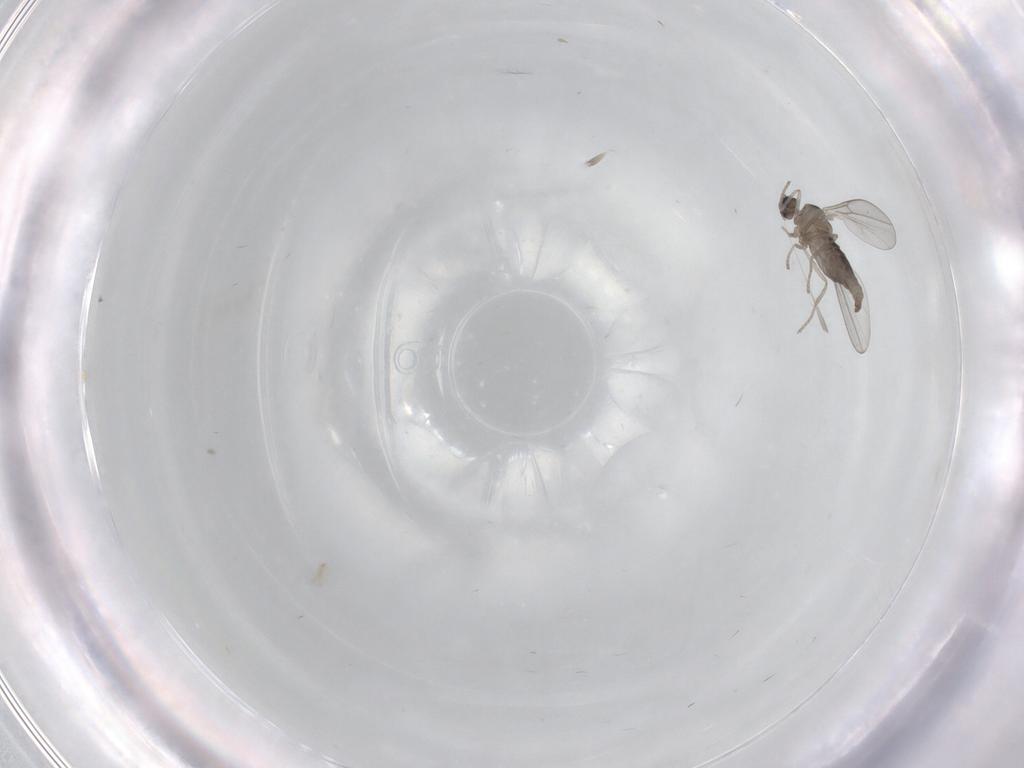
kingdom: Animalia
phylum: Arthropoda
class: Insecta
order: Diptera
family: Cecidomyiidae
